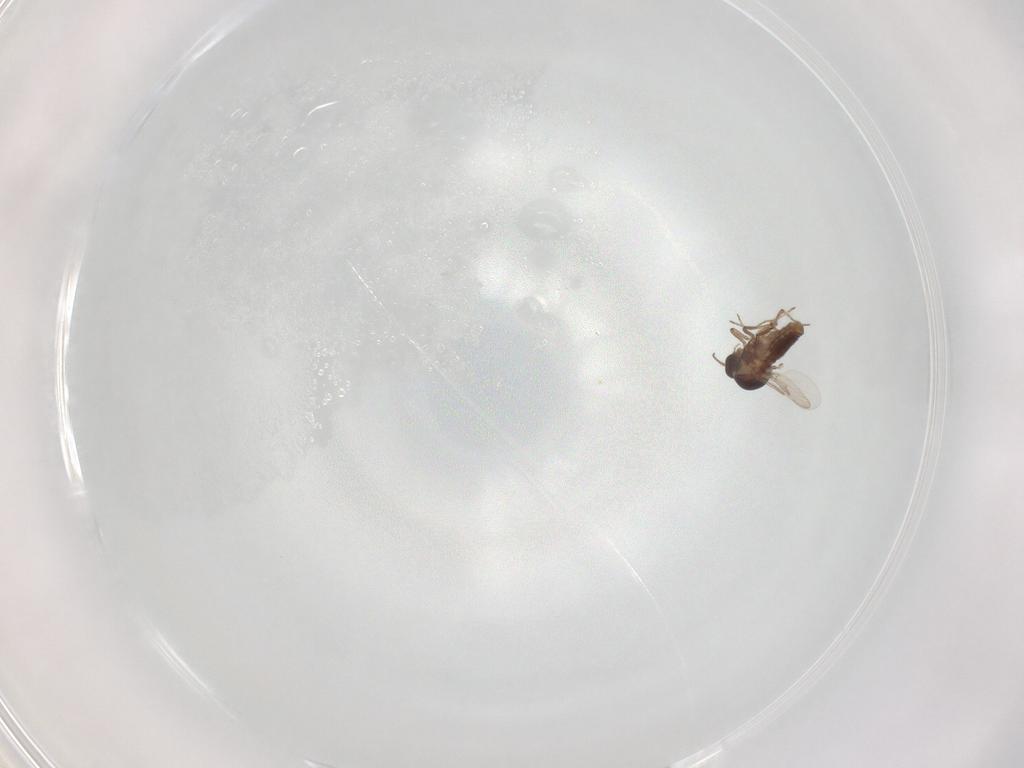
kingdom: Animalia
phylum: Arthropoda
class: Insecta
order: Diptera
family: Ceratopogonidae
